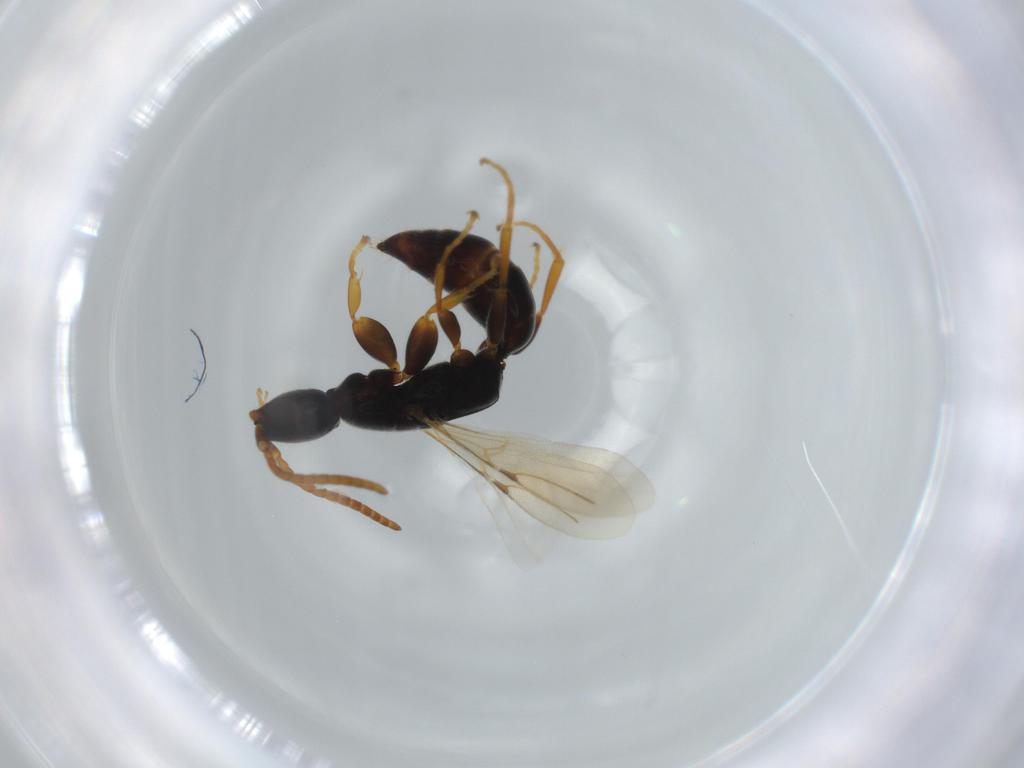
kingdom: Animalia
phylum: Arthropoda
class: Insecta
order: Hymenoptera
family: Bethylidae
